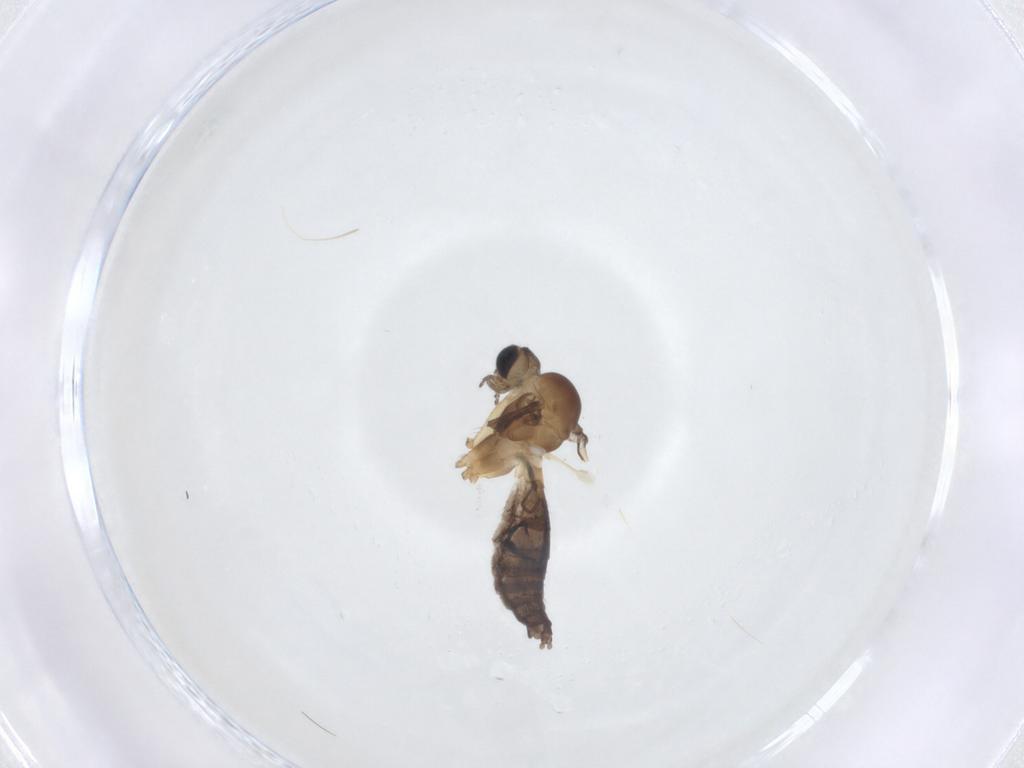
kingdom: Animalia
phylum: Arthropoda
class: Insecta
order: Diptera
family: Keroplatidae
